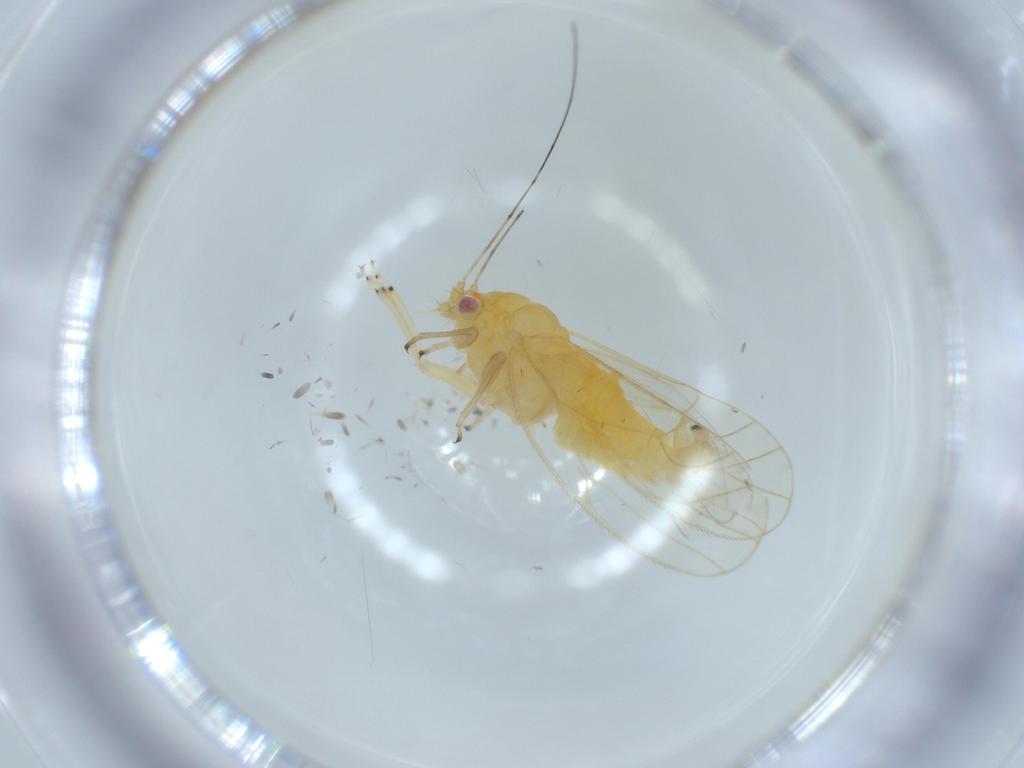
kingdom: Animalia
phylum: Arthropoda
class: Insecta
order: Hemiptera
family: Psyllidae
